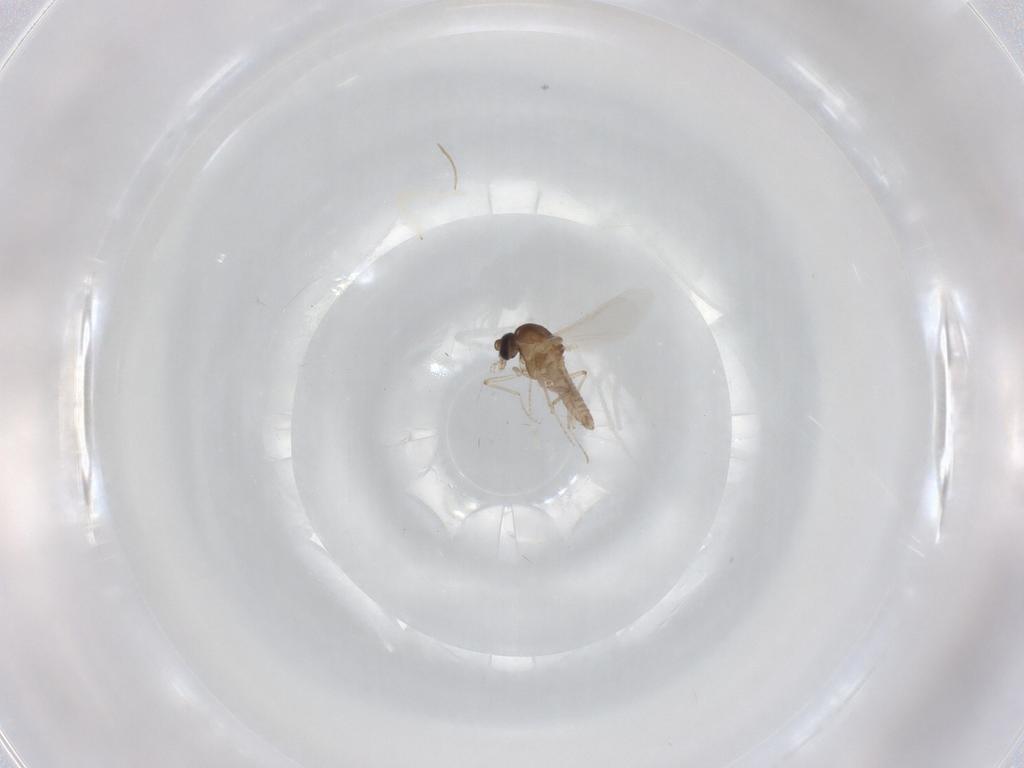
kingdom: Animalia
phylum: Arthropoda
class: Insecta
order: Diptera
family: Ceratopogonidae
